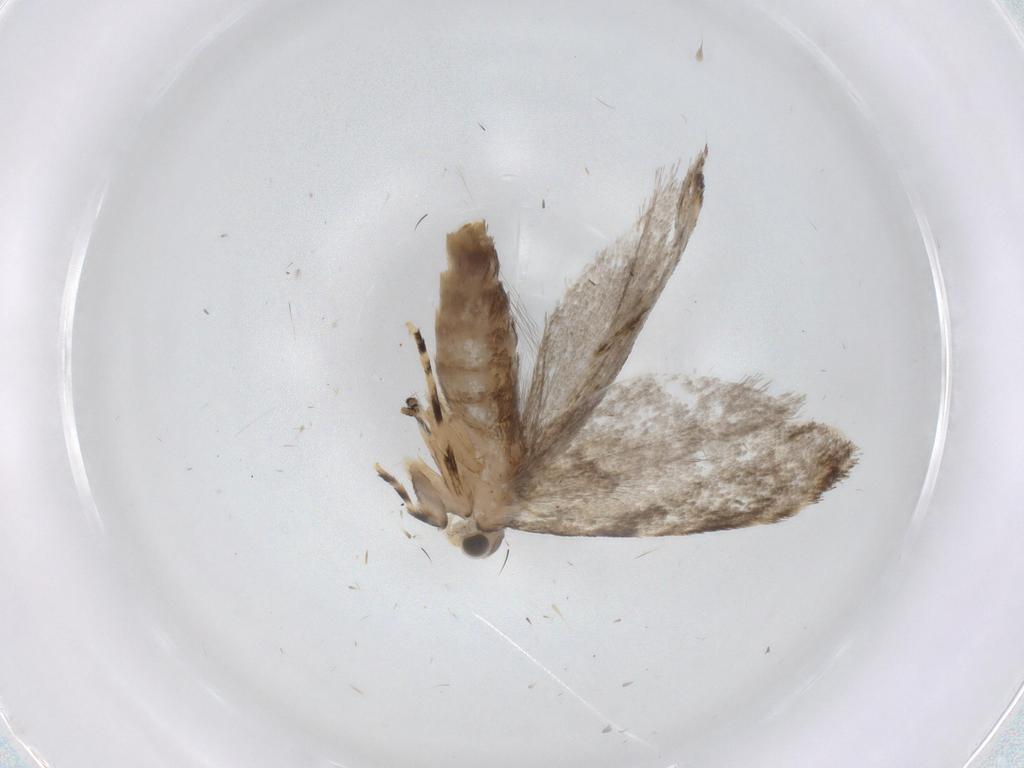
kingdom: Animalia
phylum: Arthropoda
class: Insecta
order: Lepidoptera
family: Tineidae
